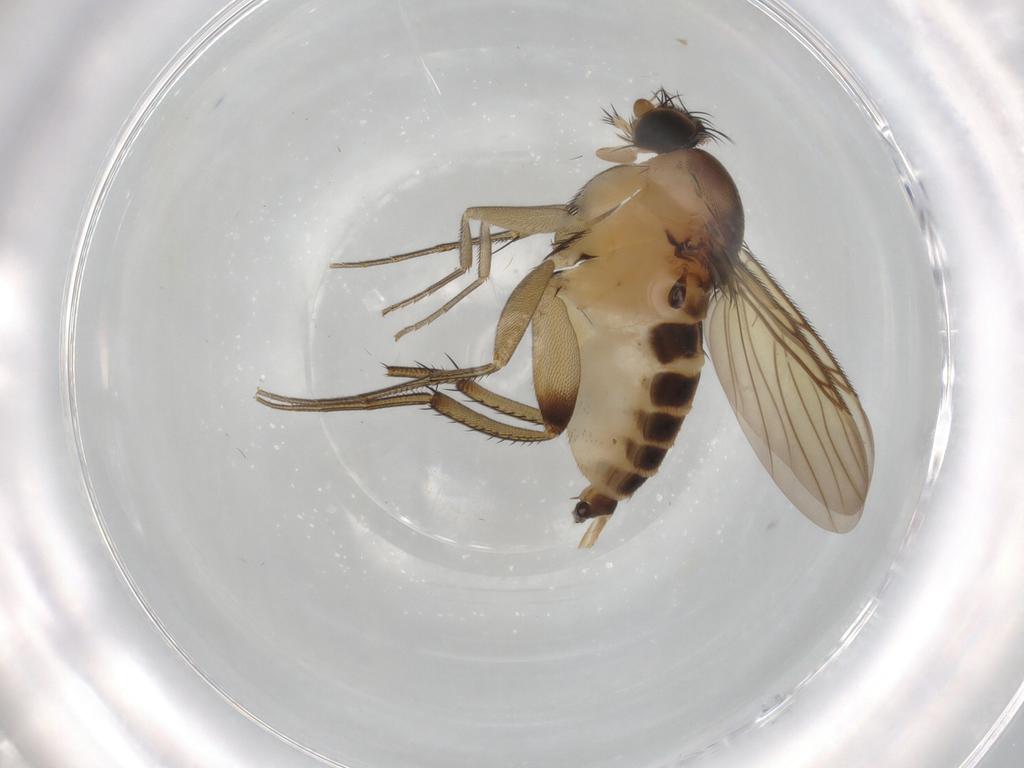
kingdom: Animalia
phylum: Arthropoda
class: Insecta
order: Diptera
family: Phoridae
